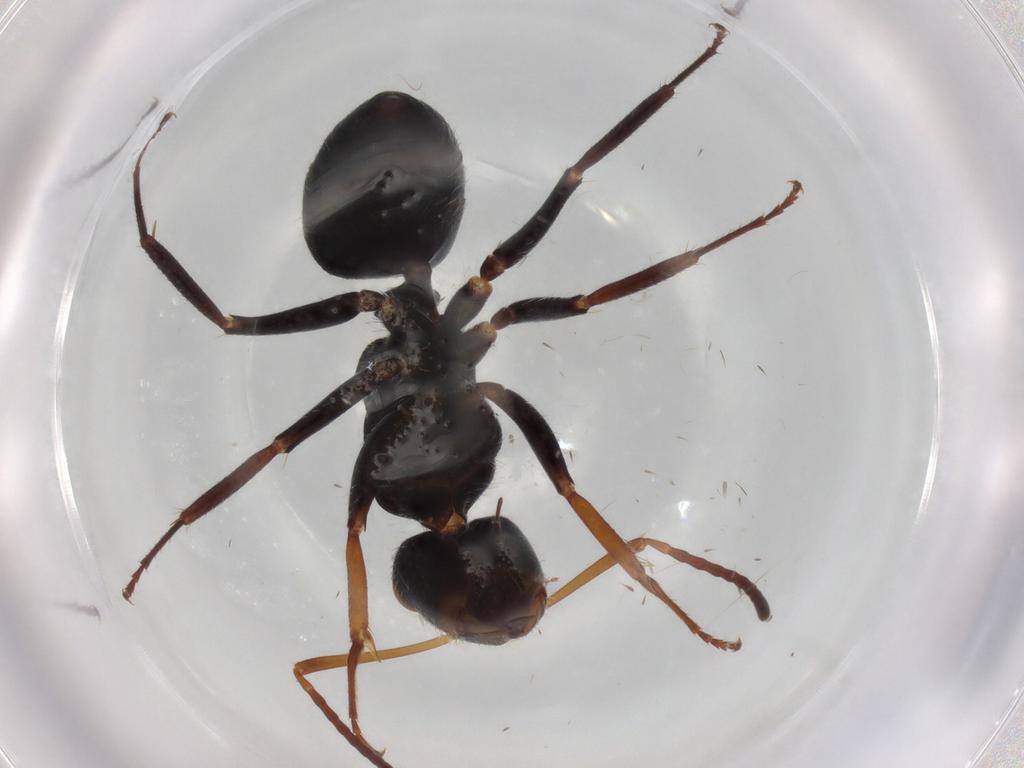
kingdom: Animalia
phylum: Arthropoda
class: Insecta
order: Hymenoptera
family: Formicidae
